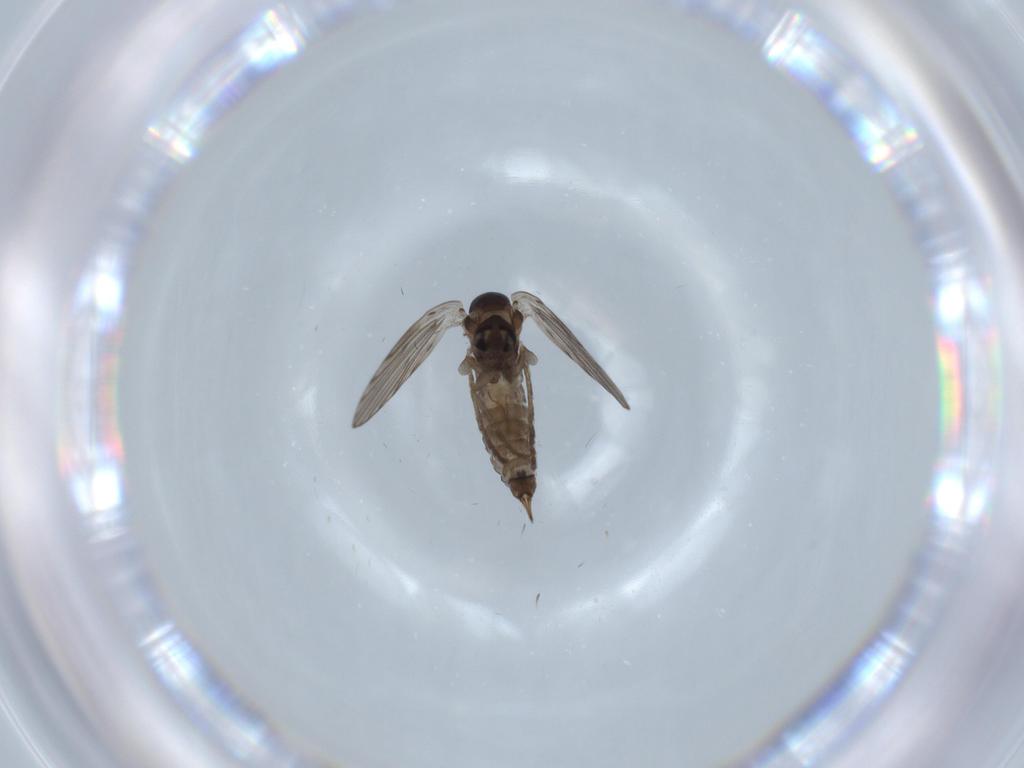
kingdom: Animalia
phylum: Arthropoda
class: Insecta
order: Diptera
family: Psychodidae
